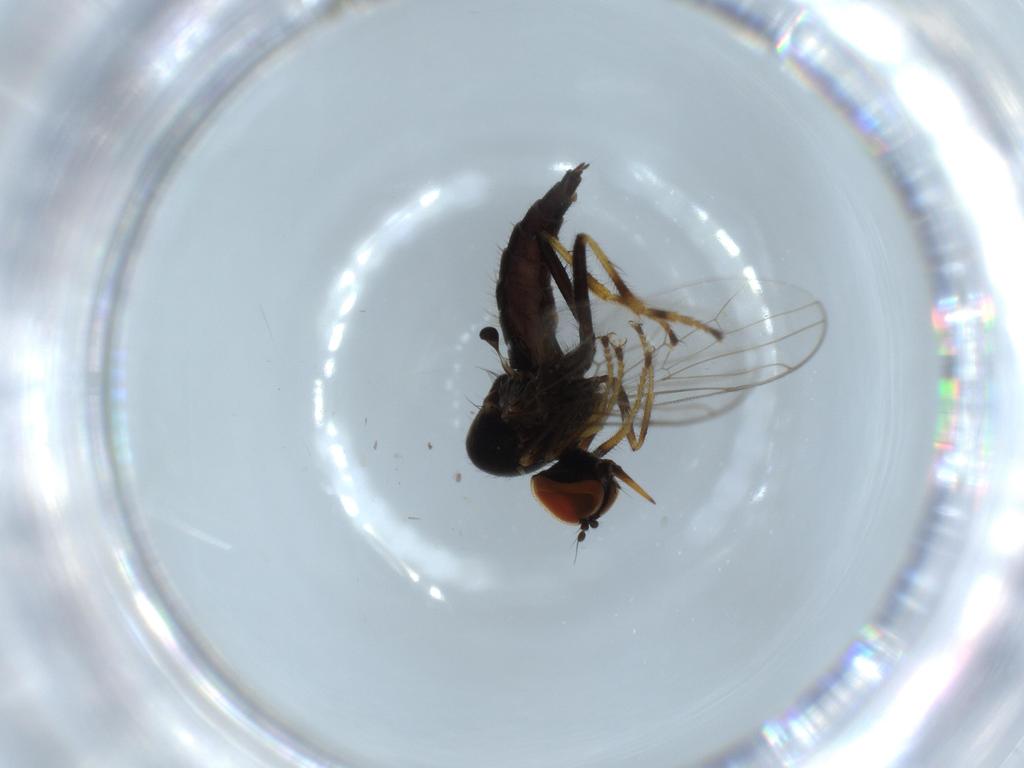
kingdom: Animalia
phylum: Arthropoda
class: Insecta
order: Diptera
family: Hybotidae
